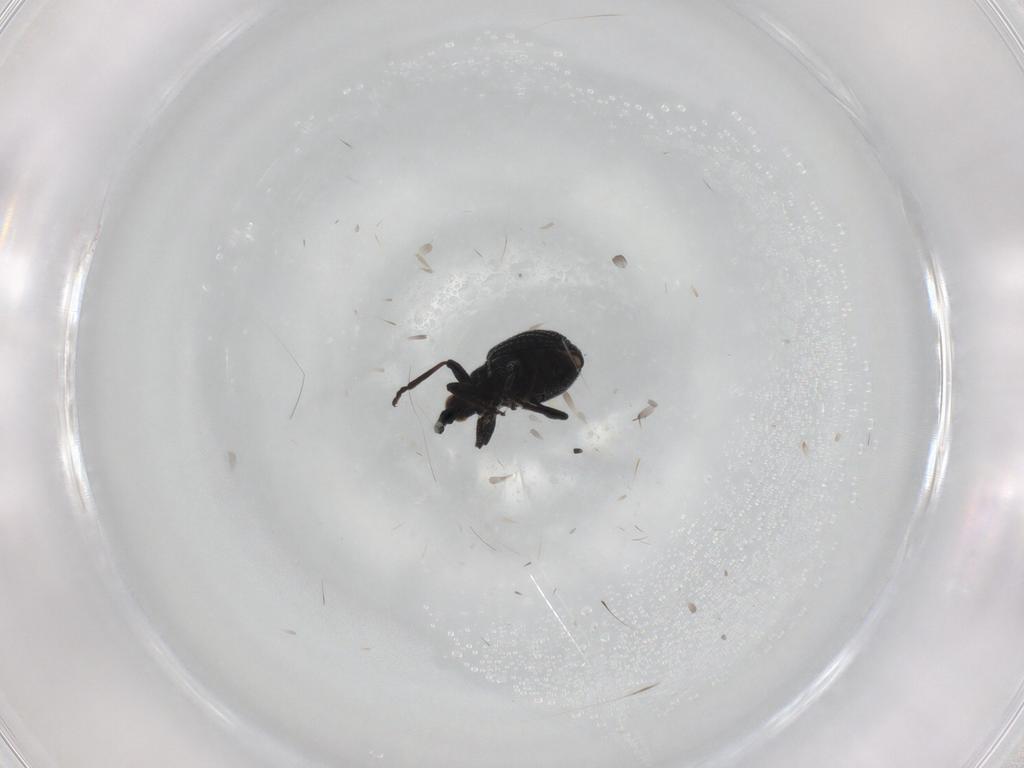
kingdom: Animalia
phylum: Arthropoda
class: Insecta
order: Coleoptera
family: Brentidae
